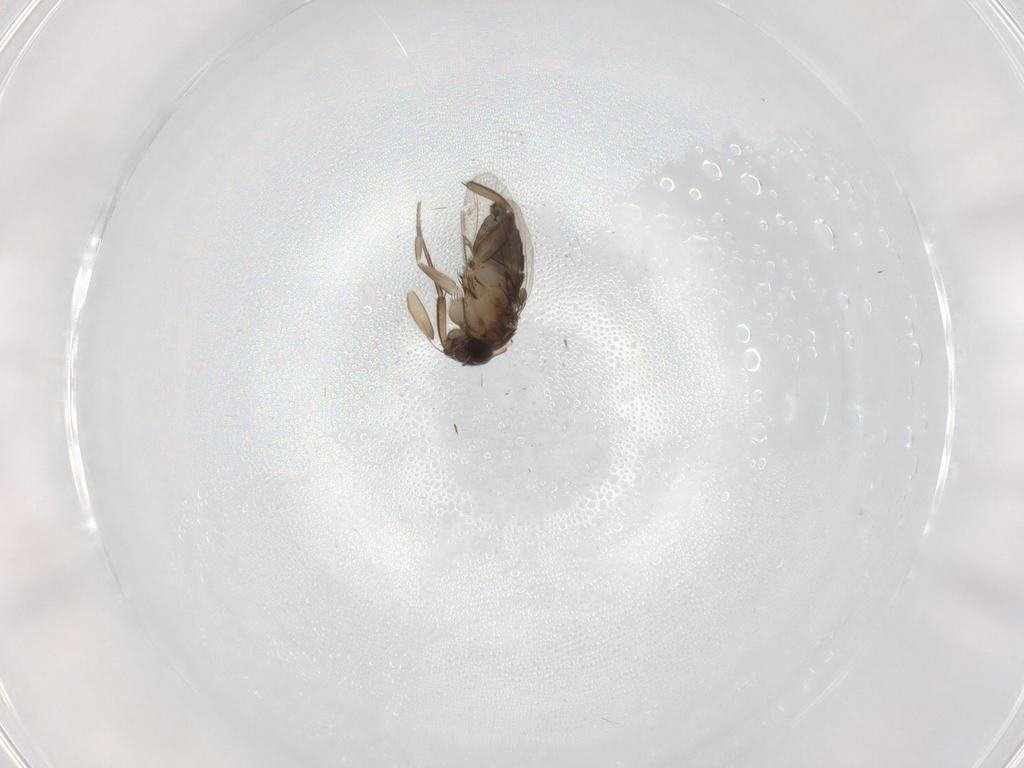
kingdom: Animalia
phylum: Arthropoda
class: Insecta
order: Diptera
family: Phoridae
